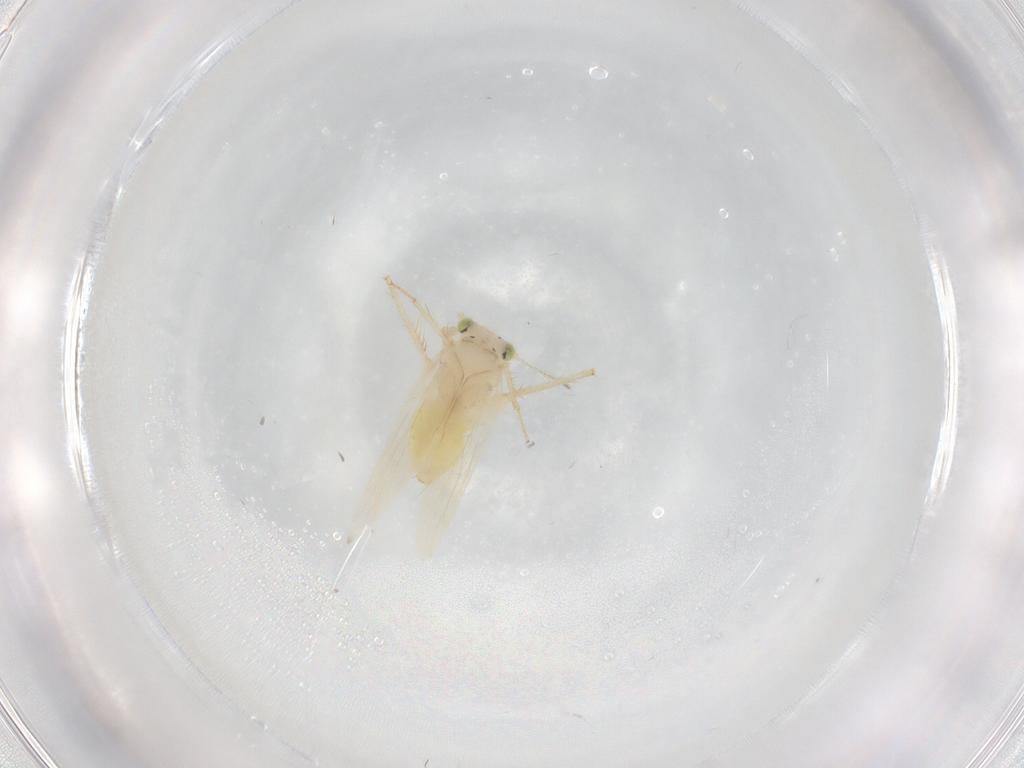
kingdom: Animalia
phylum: Arthropoda
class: Insecta
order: Psocodea
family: Lepidopsocidae
